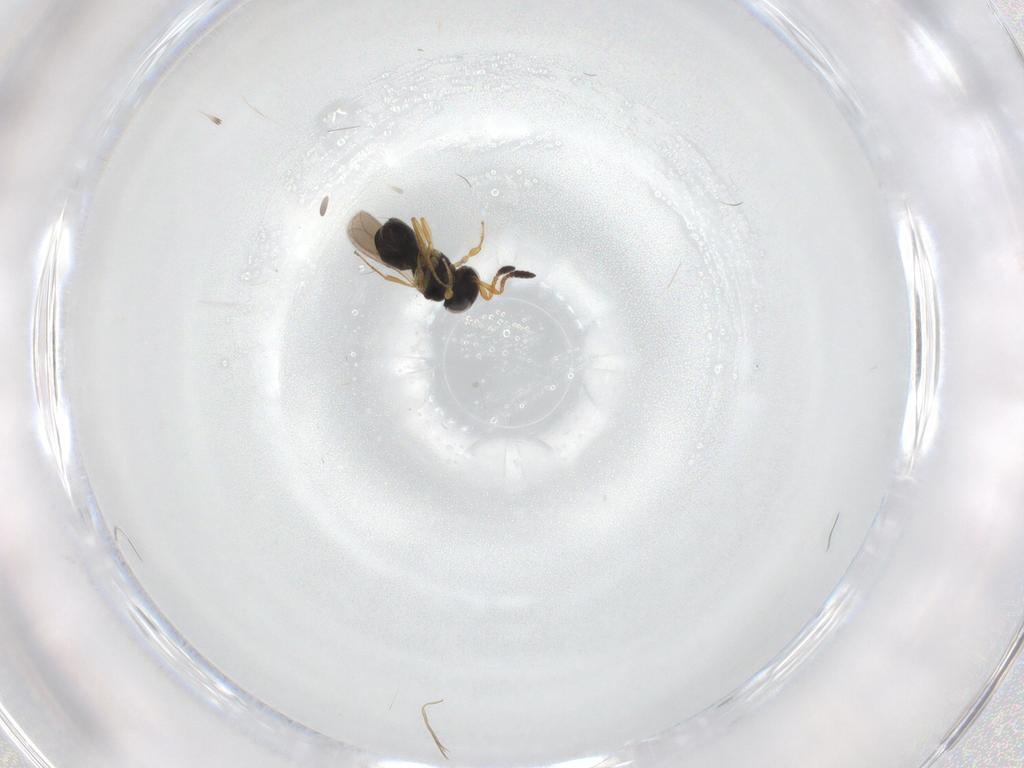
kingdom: Animalia
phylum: Arthropoda
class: Insecta
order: Hymenoptera
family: Scelionidae
